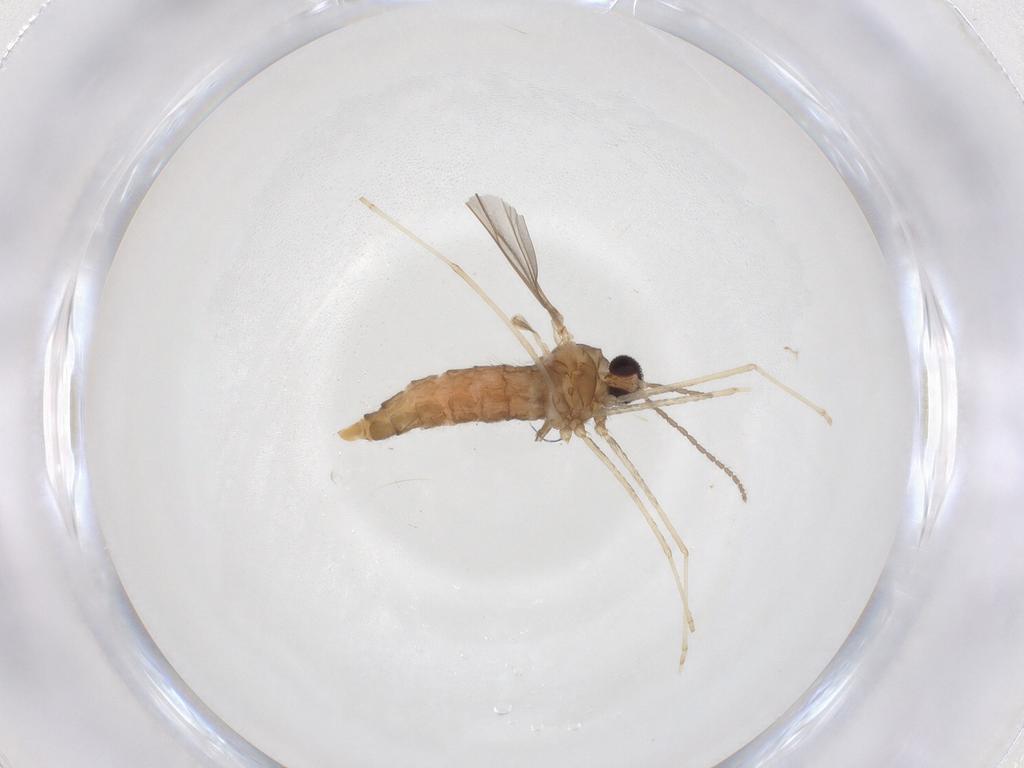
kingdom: Animalia
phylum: Arthropoda
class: Insecta
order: Diptera
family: Cecidomyiidae
